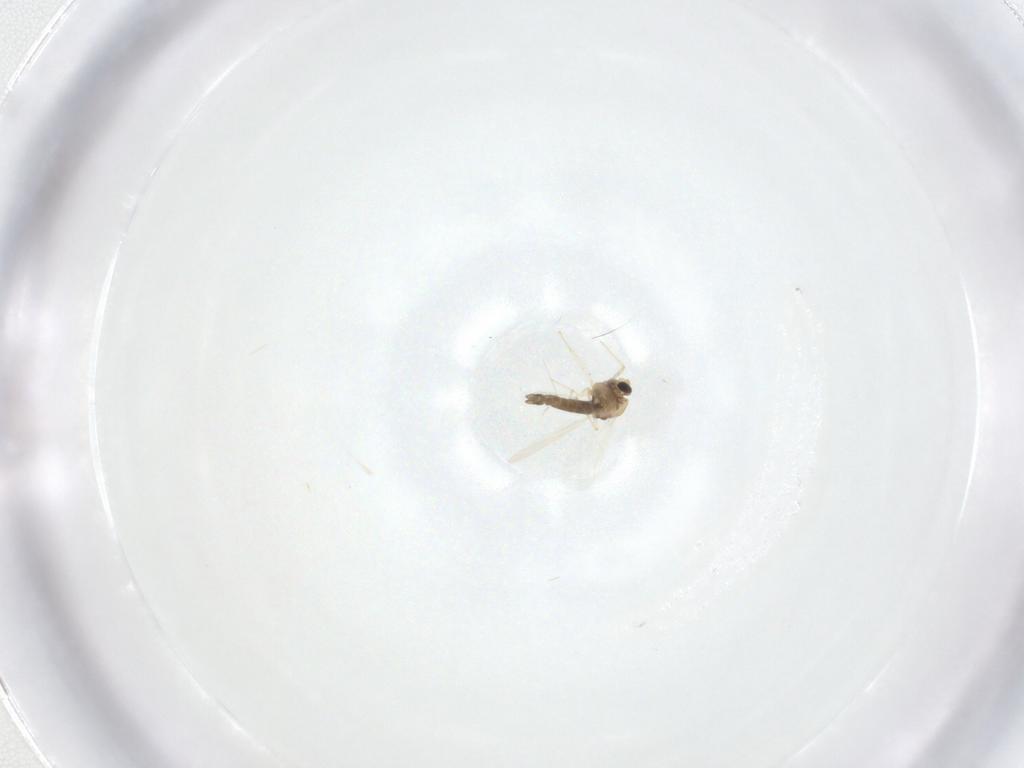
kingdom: Animalia
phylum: Arthropoda
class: Insecta
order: Diptera
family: Chironomidae
